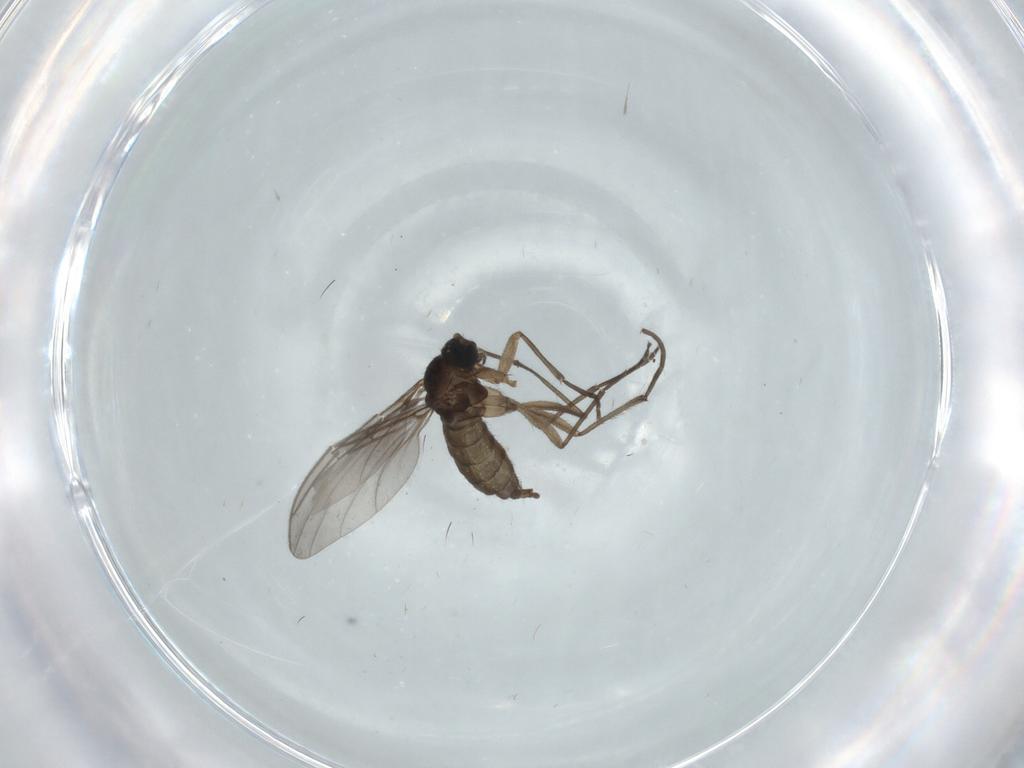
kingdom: Animalia
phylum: Arthropoda
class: Insecta
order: Diptera
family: Sciaridae
